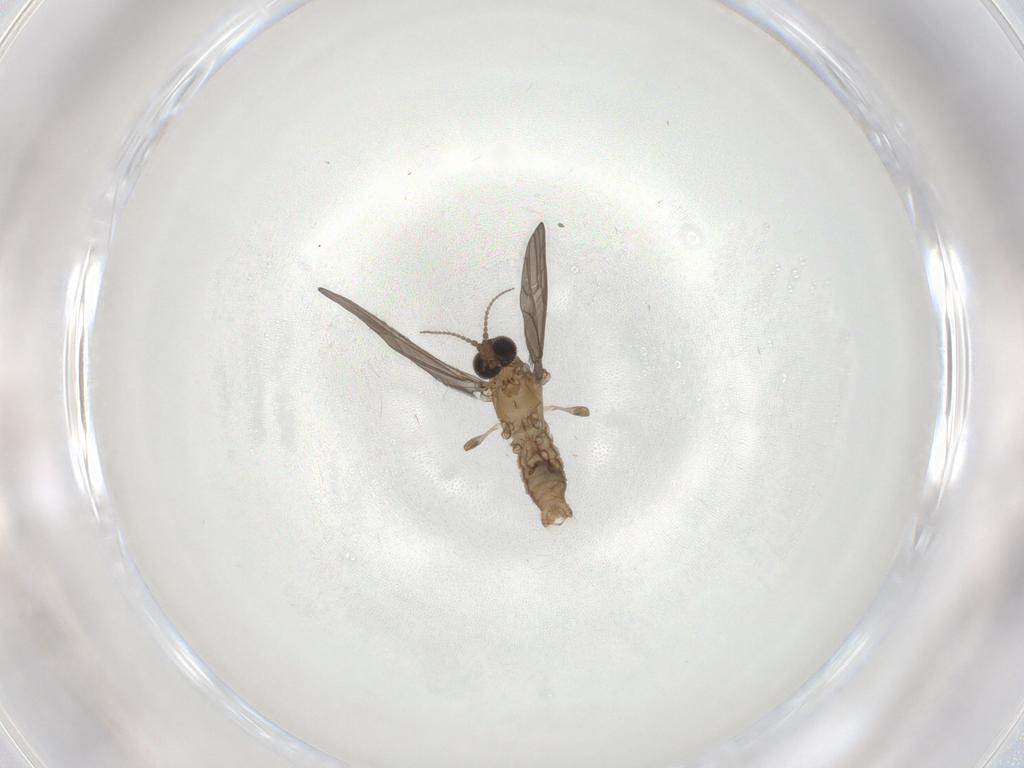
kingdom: Animalia
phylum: Arthropoda
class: Insecta
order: Diptera
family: Limoniidae
